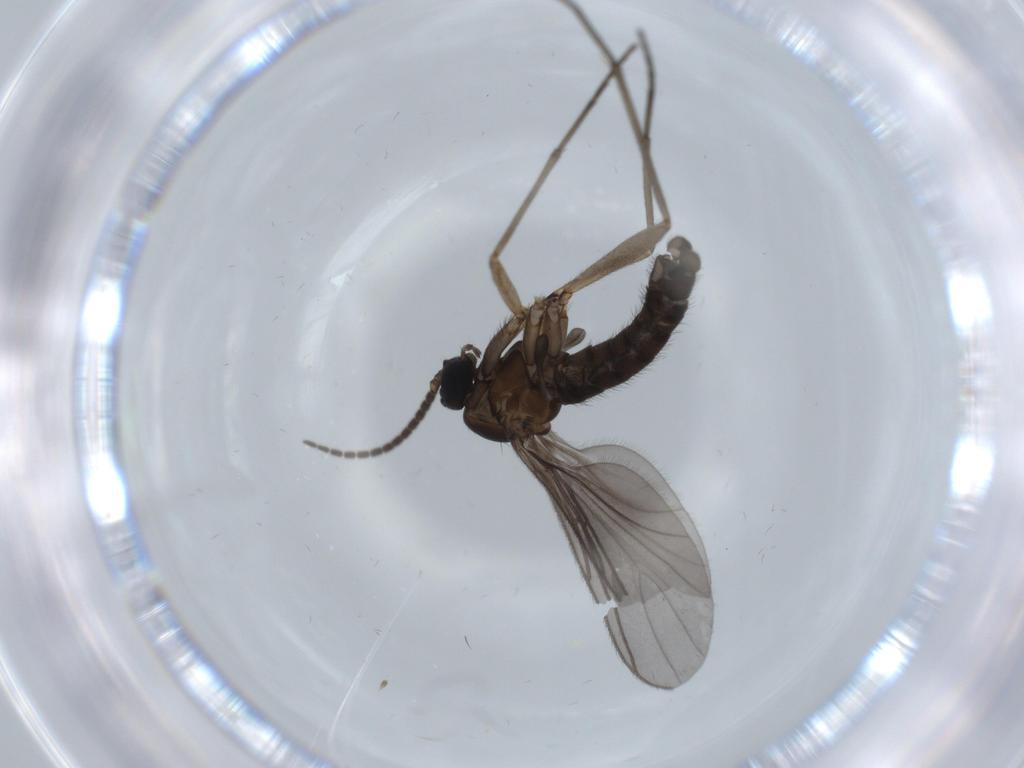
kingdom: Animalia
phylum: Arthropoda
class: Insecta
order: Diptera
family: Sciaridae
